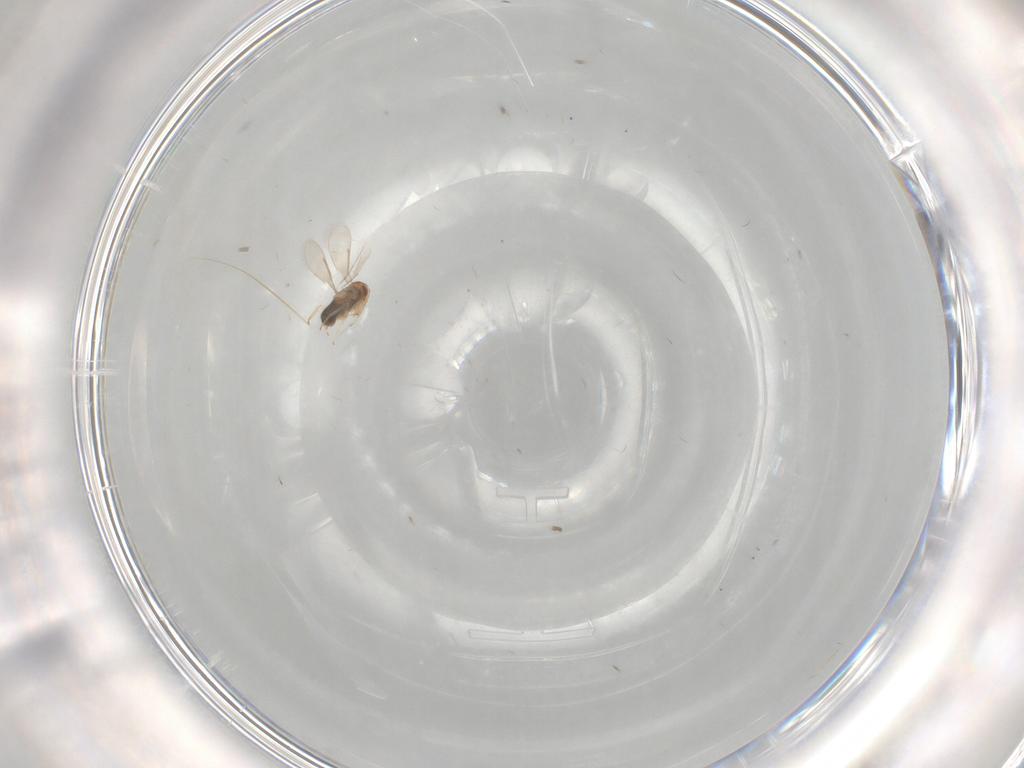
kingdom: Animalia
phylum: Arthropoda
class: Insecta
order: Hymenoptera
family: Aphelinidae
